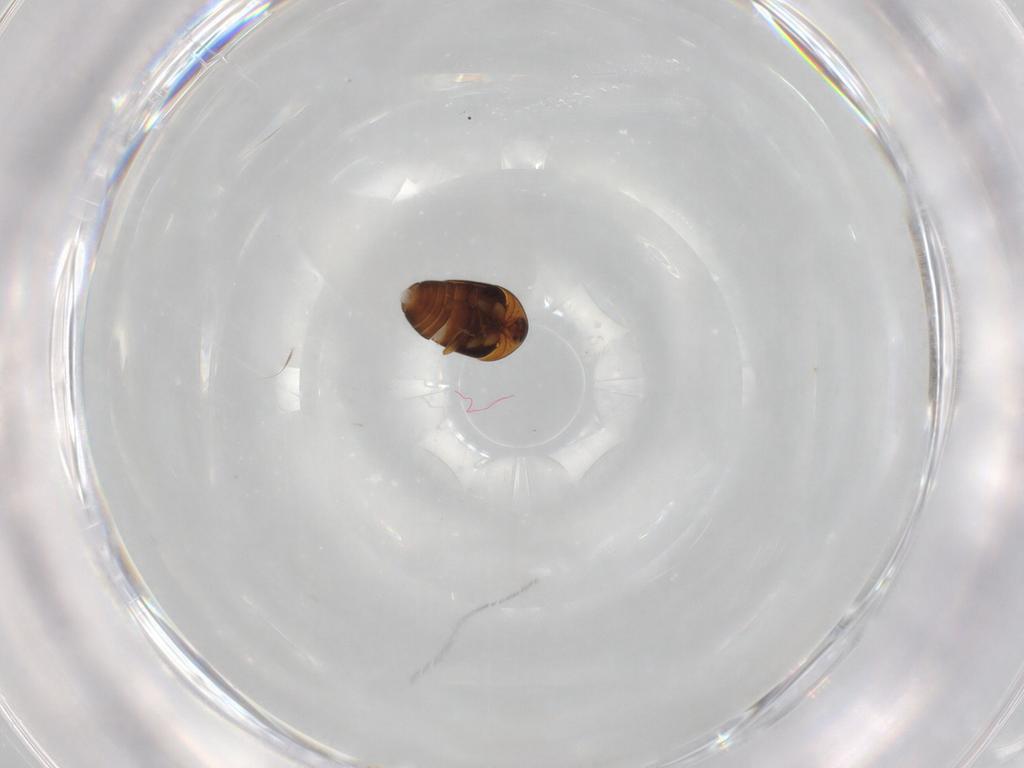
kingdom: Animalia
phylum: Arthropoda
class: Insecta
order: Coleoptera
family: Corylophidae
